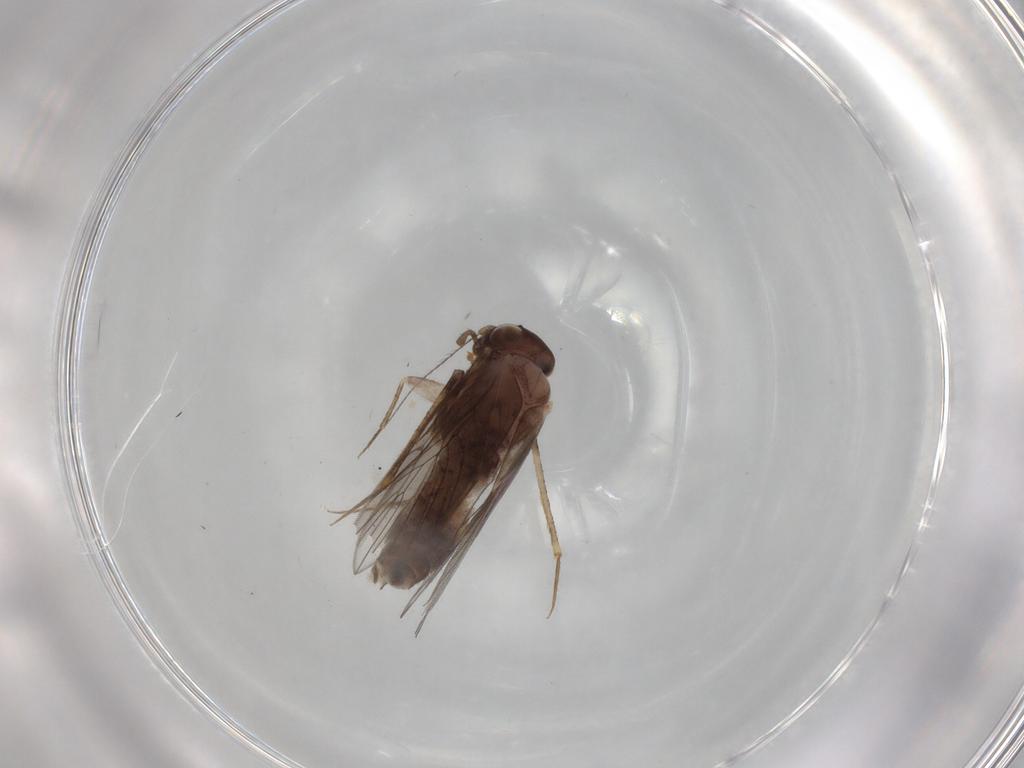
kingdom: Animalia
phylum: Arthropoda
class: Insecta
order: Psocodea
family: Lepidopsocidae
